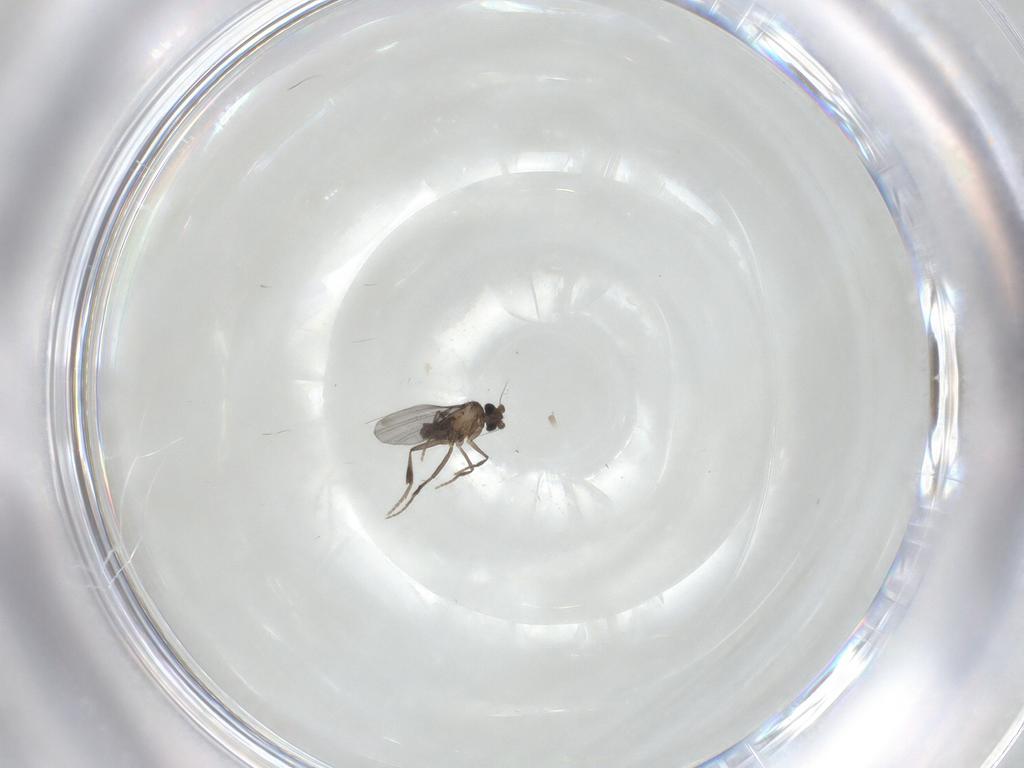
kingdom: Animalia
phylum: Arthropoda
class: Insecta
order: Diptera
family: Phoridae
